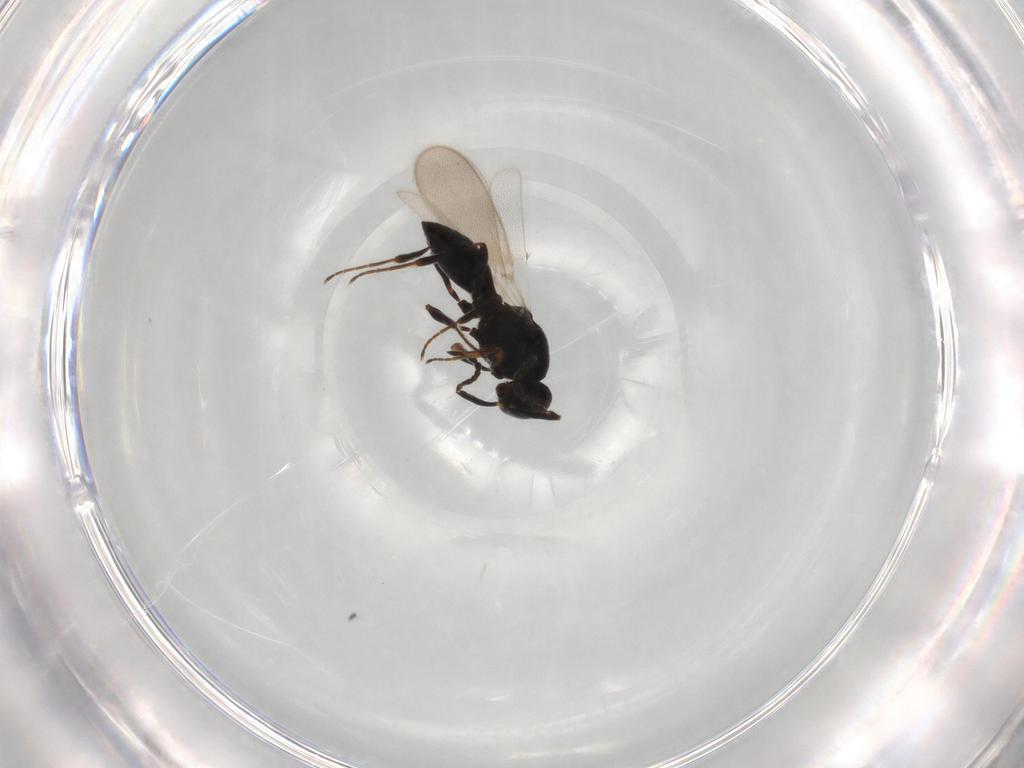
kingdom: Animalia
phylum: Arthropoda
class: Insecta
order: Diptera
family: Mythicomyiidae
